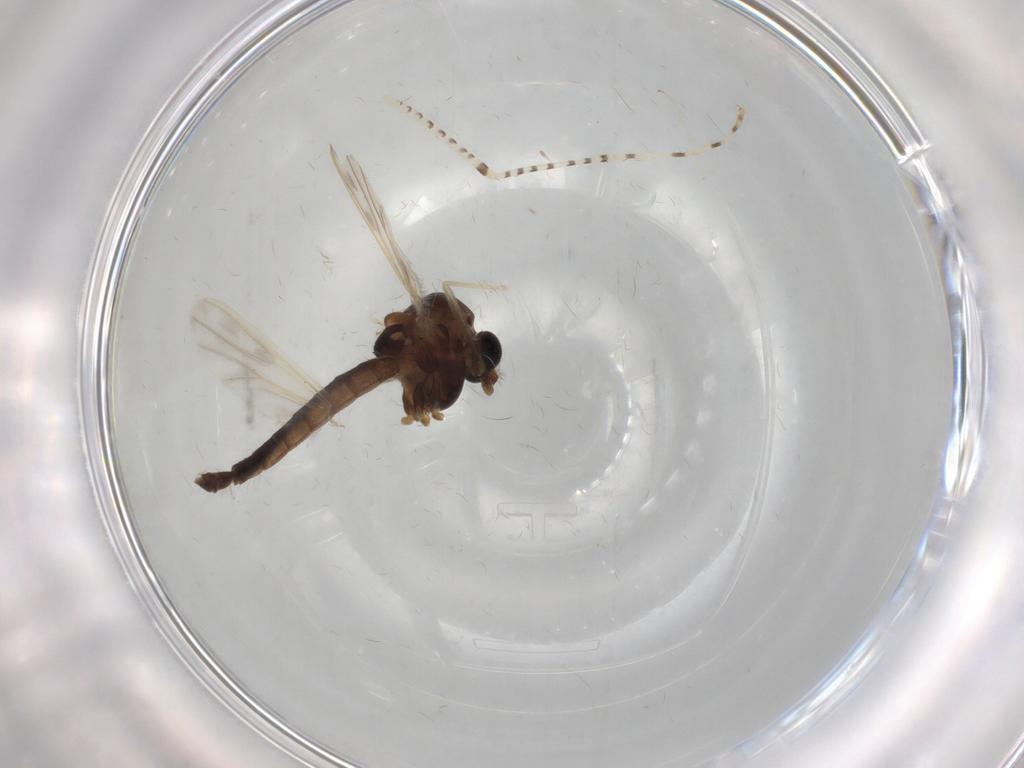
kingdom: Animalia
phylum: Arthropoda
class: Insecta
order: Diptera
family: Chironomidae
